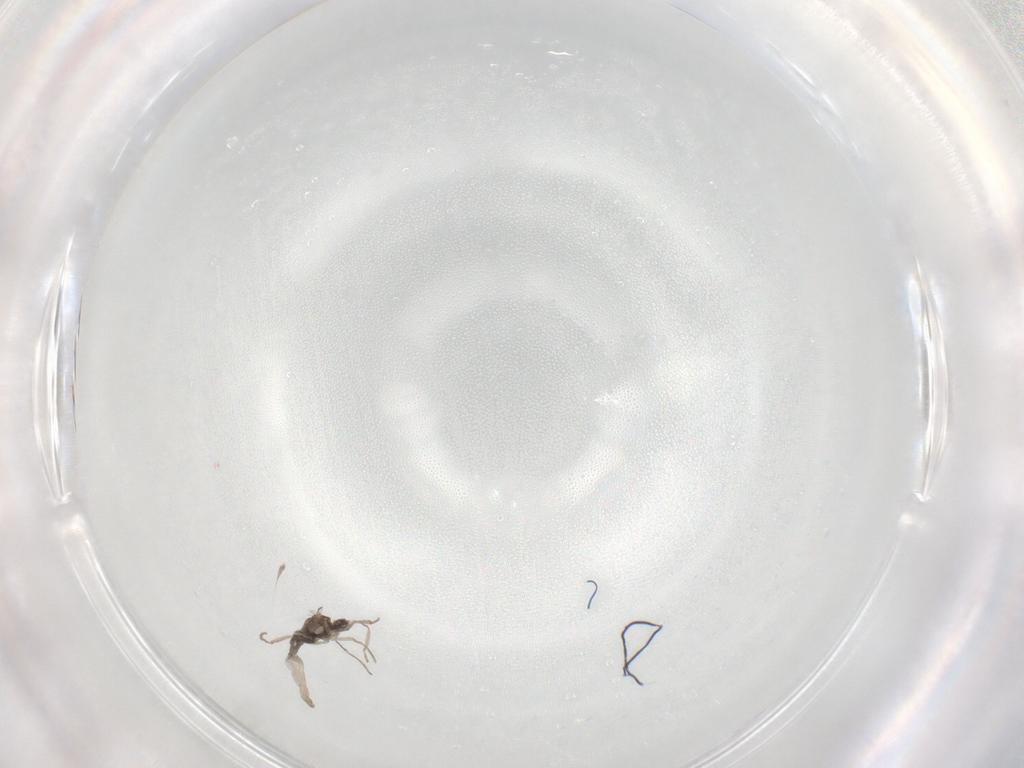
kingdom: Animalia
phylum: Arthropoda
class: Insecta
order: Diptera
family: Cecidomyiidae
